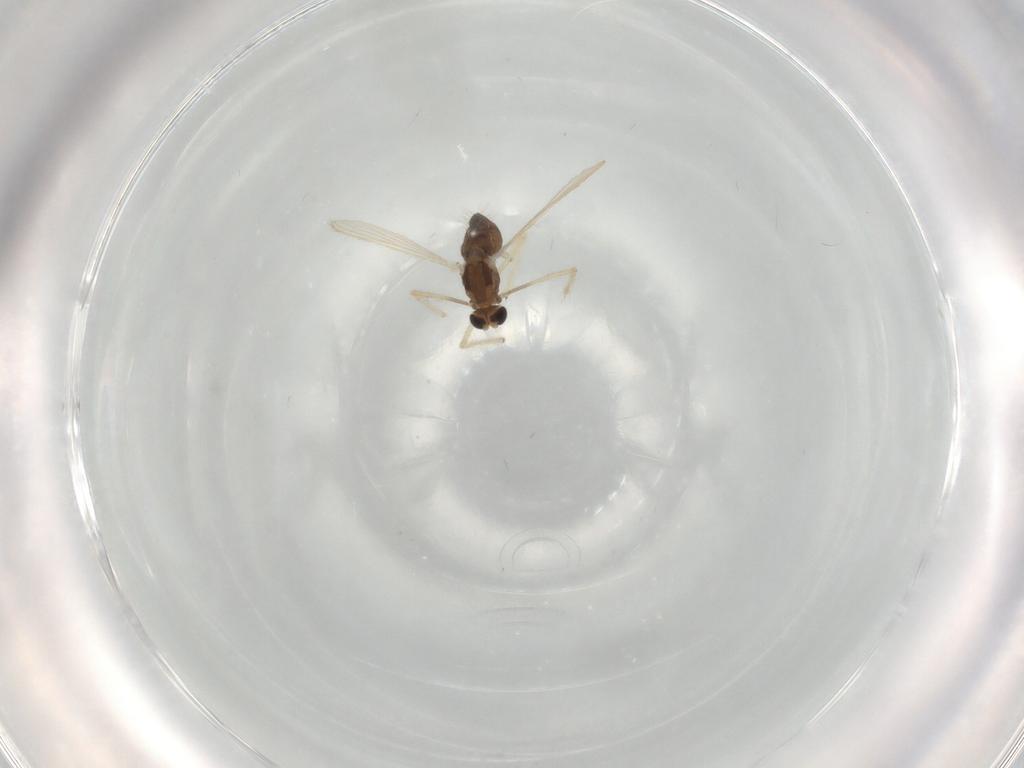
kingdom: Animalia
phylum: Arthropoda
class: Insecta
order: Diptera
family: Chironomidae
